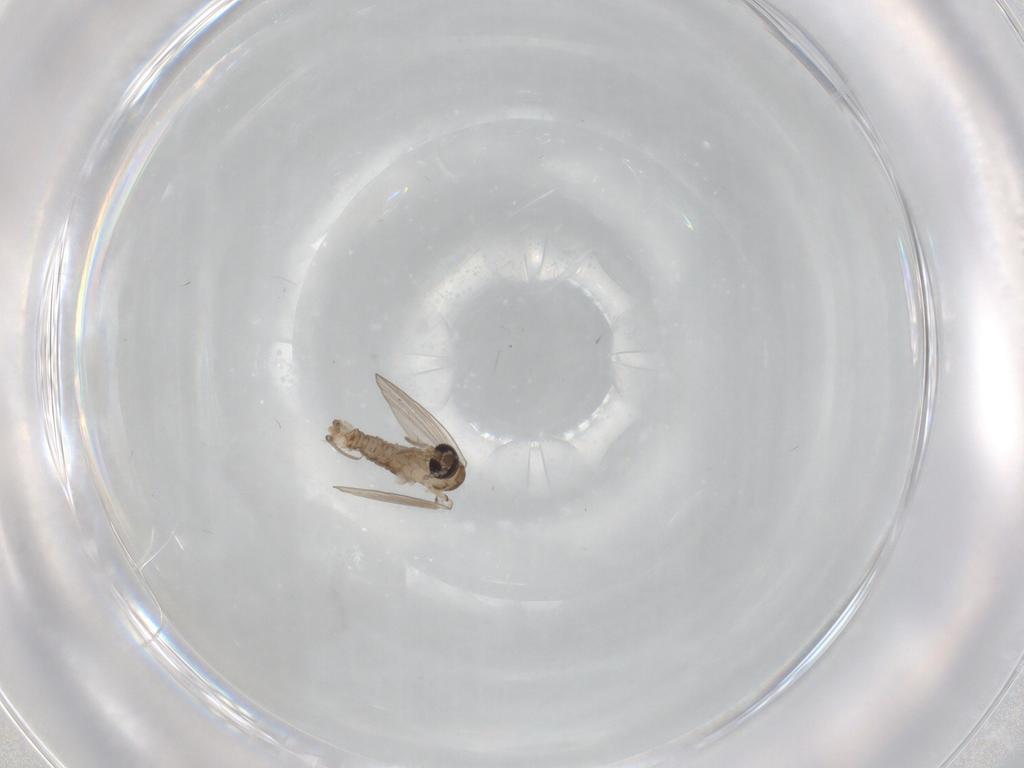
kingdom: Animalia
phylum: Arthropoda
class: Insecta
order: Diptera
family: Psychodidae
